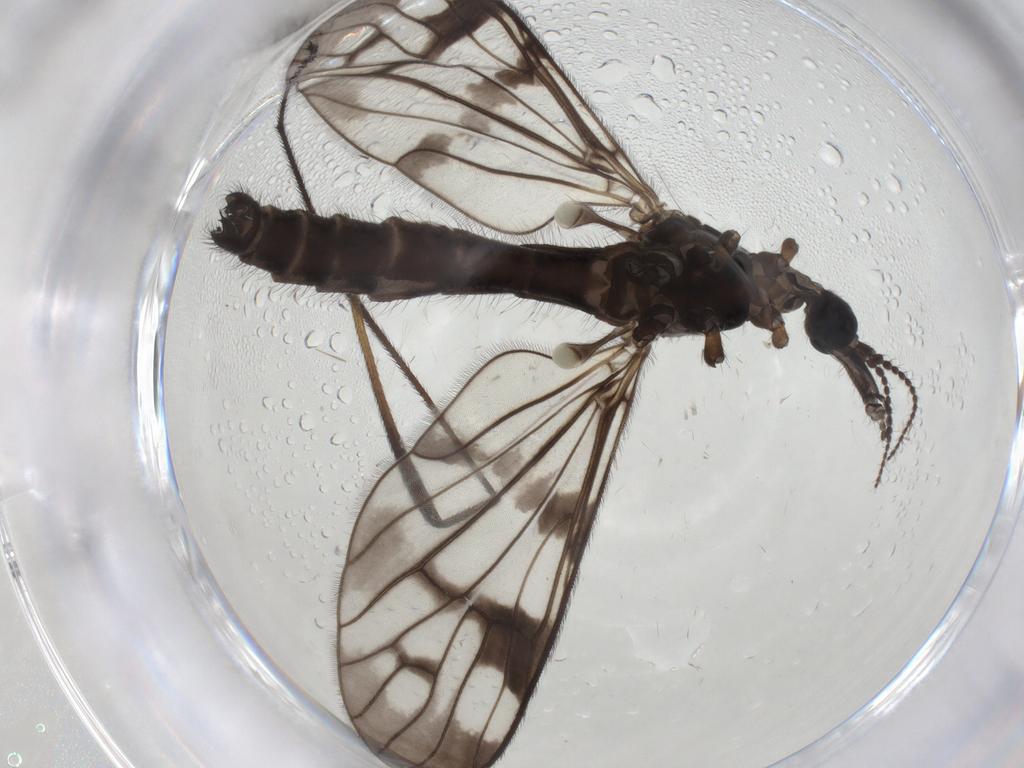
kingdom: Animalia
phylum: Arthropoda
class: Insecta
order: Diptera
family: Limoniidae
